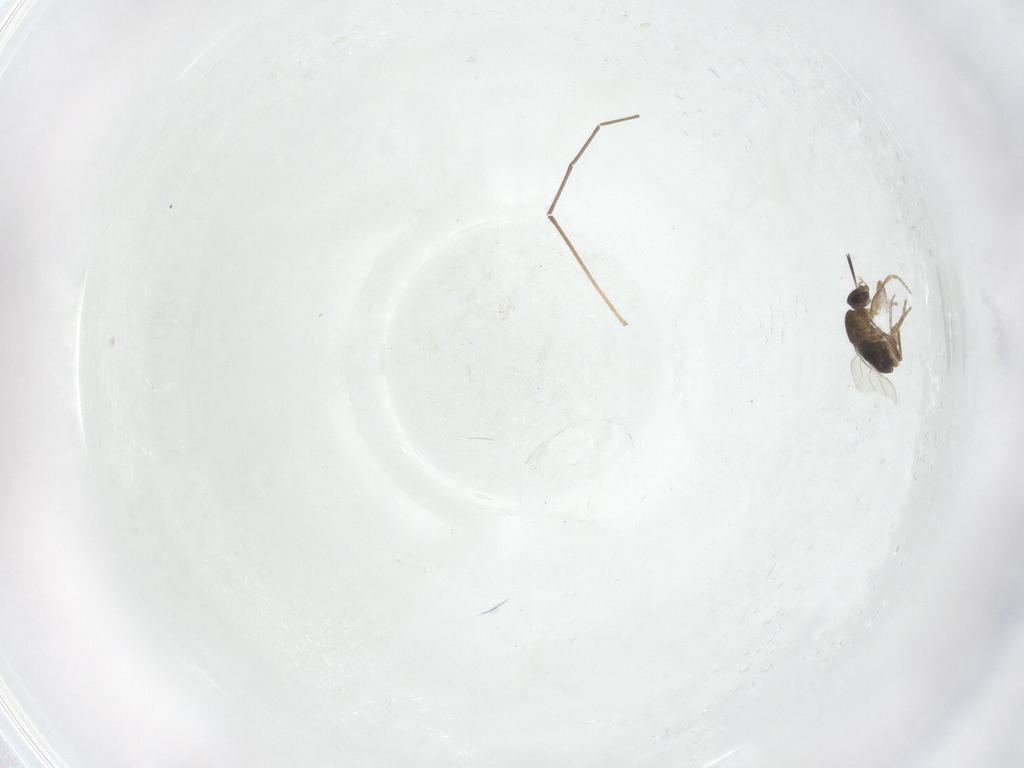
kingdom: Animalia
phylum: Arthropoda
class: Insecta
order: Diptera
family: Phoridae
